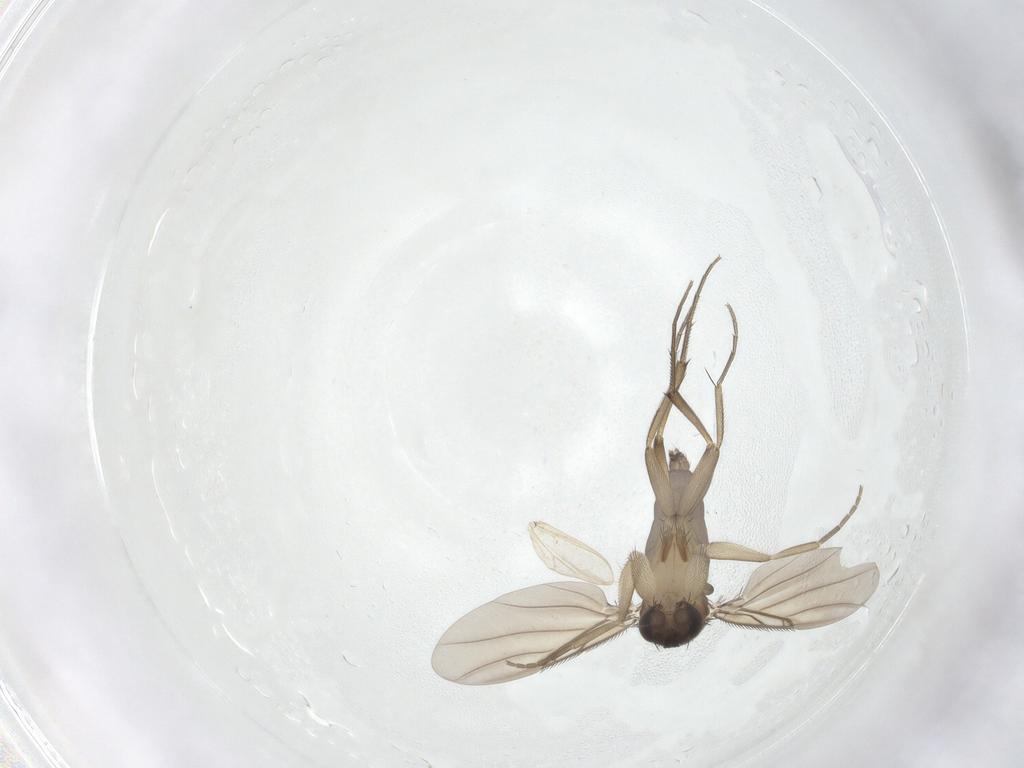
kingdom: Animalia
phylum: Arthropoda
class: Insecta
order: Diptera
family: Phoridae
